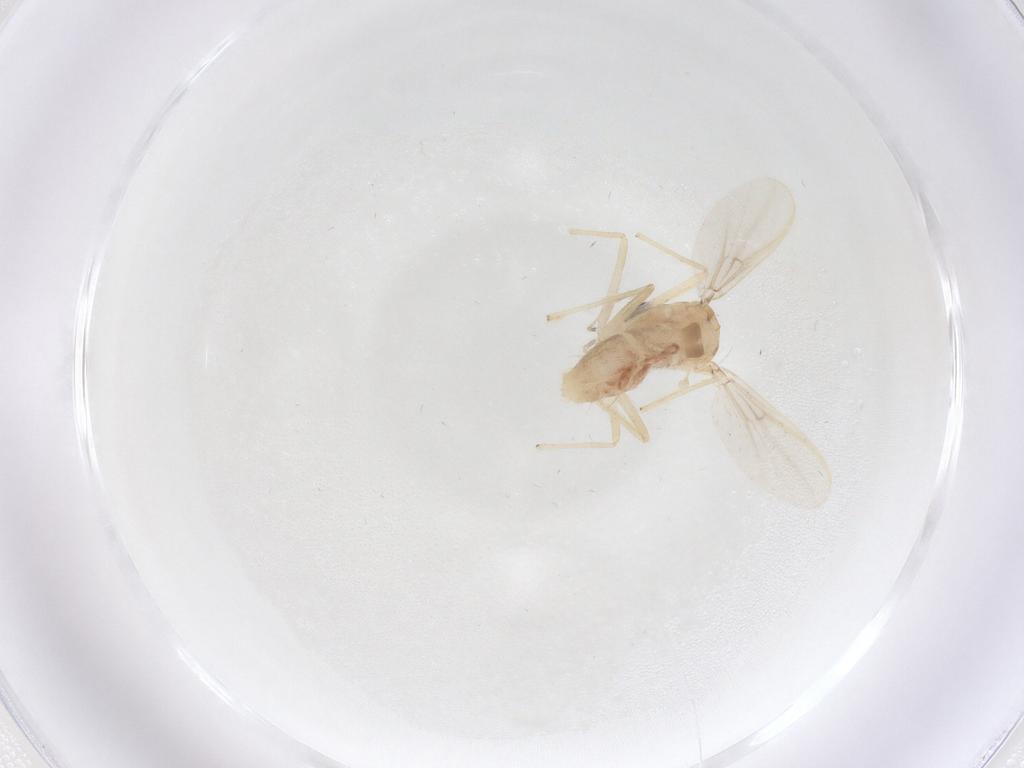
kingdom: Animalia
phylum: Arthropoda
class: Insecta
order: Diptera
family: Chironomidae
